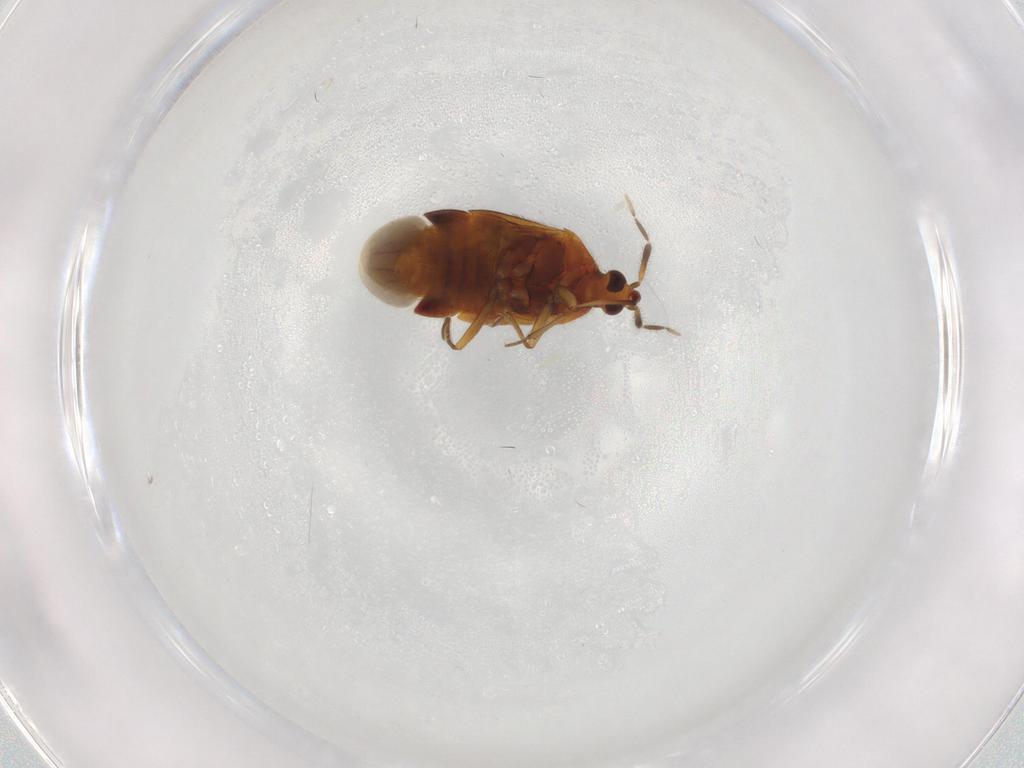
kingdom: Animalia
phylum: Arthropoda
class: Insecta
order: Hemiptera
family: Anthocoridae
